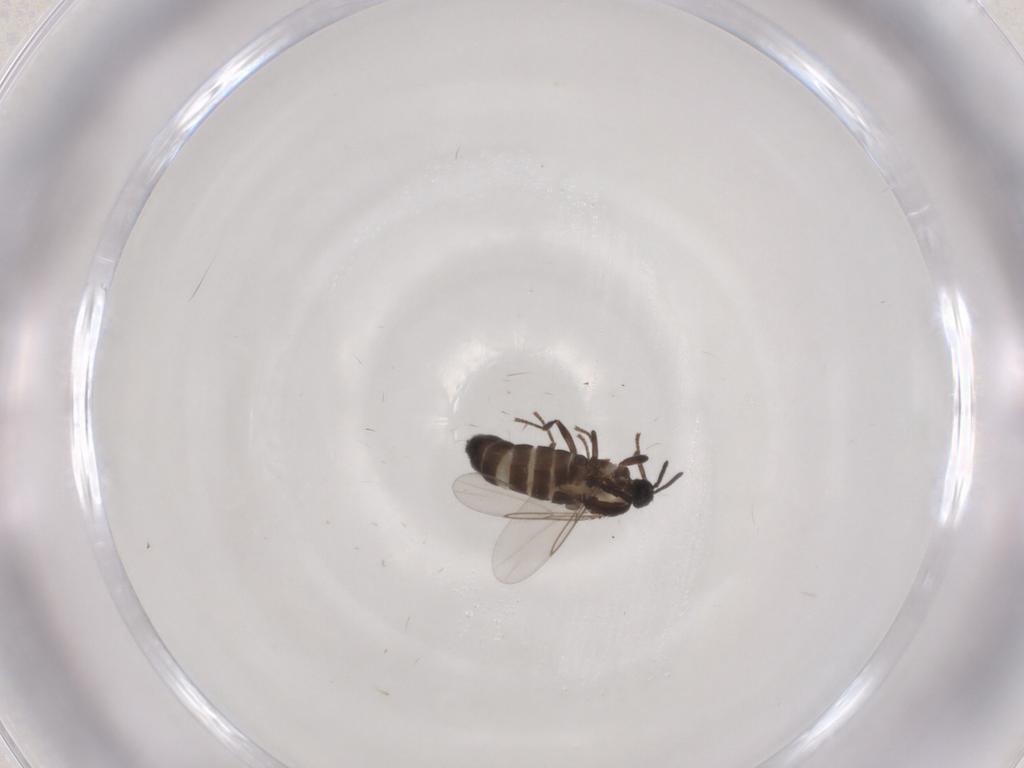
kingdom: Animalia
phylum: Arthropoda
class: Insecta
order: Diptera
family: Scatopsidae
